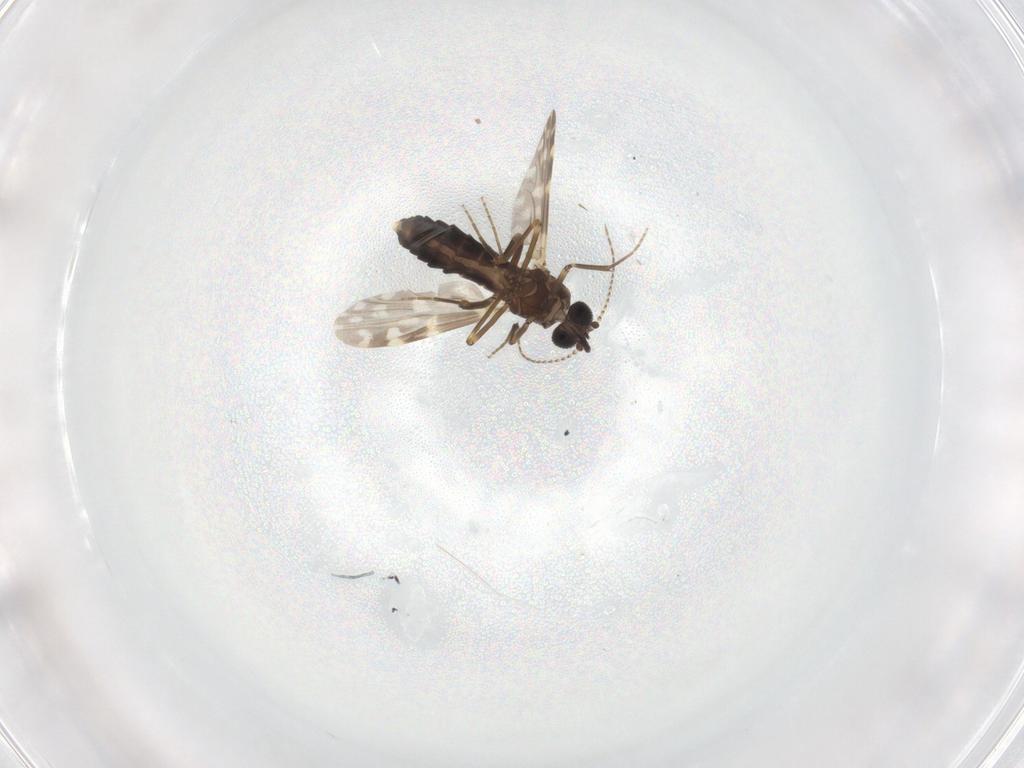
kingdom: Animalia
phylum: Arthropoda
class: Insecta
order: Diptera
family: Ceratopogonidae
